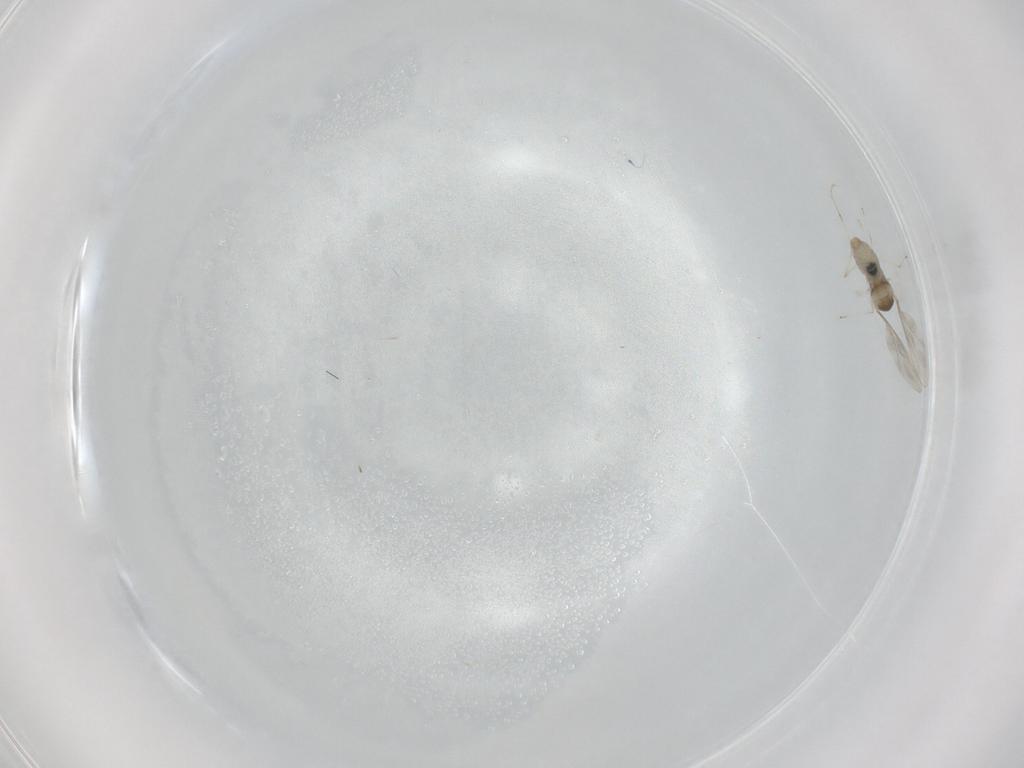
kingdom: Animalia
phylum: Arthropoda
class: Insecta
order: Diptera
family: Cecidomyiidae
